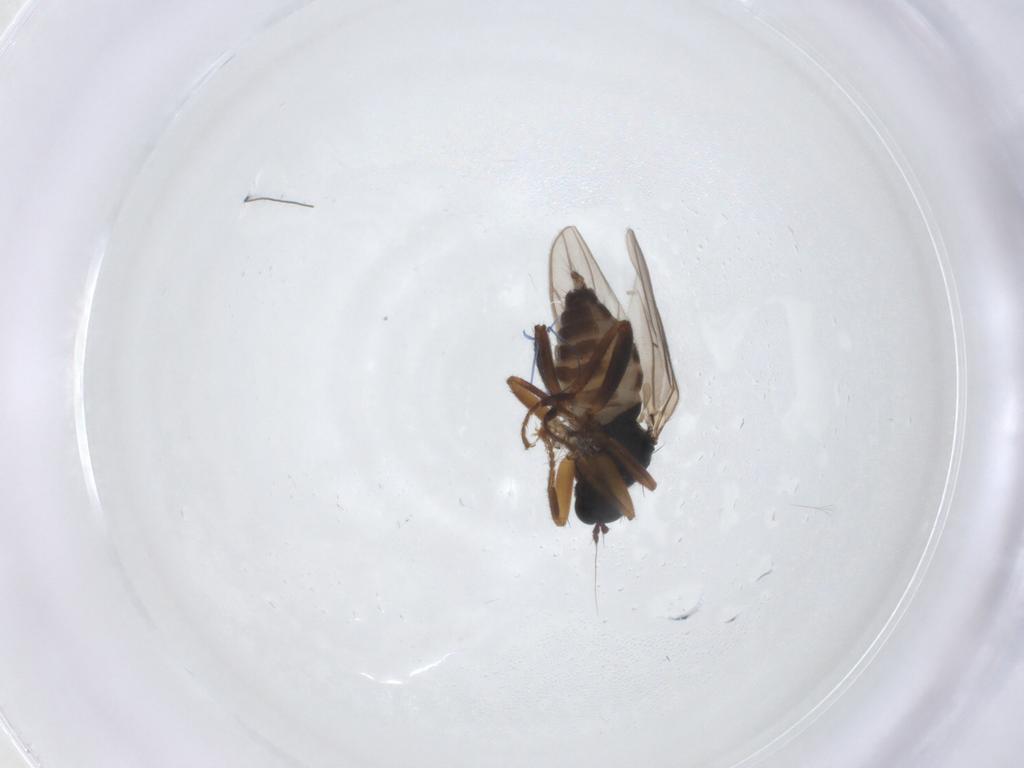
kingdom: Animalia
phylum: Arthropoda
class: Insecta
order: Diptera
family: Hybotidae
